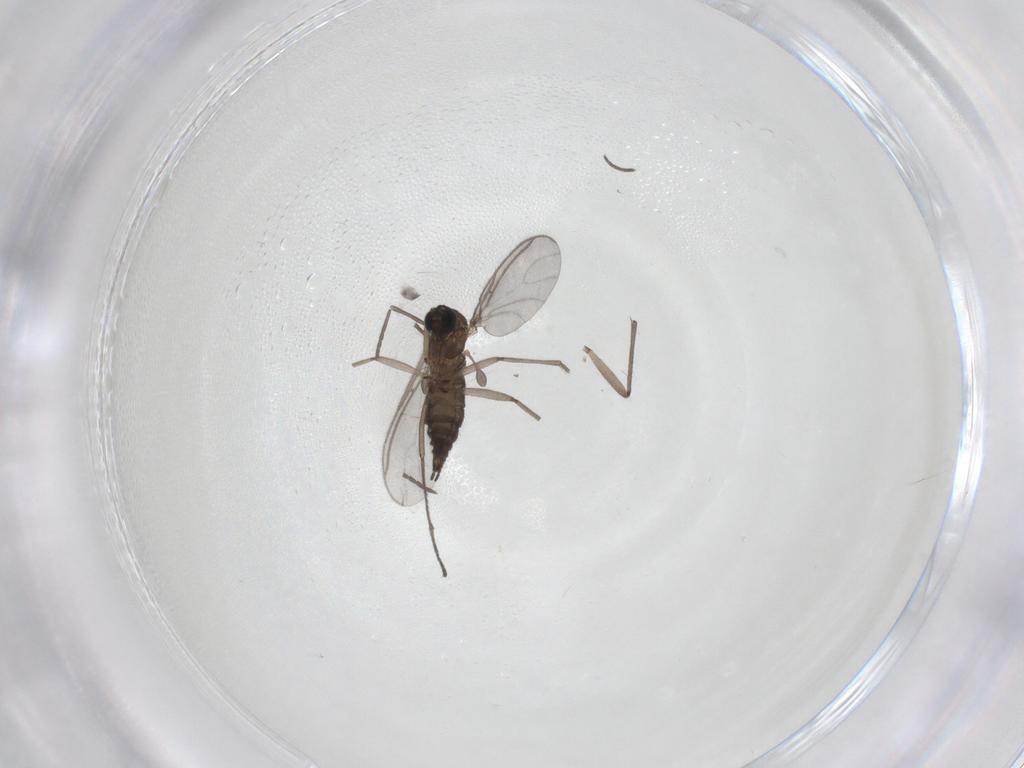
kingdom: Animalia
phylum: Arthropoda
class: Insecta
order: Diptera
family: Sciaridae
